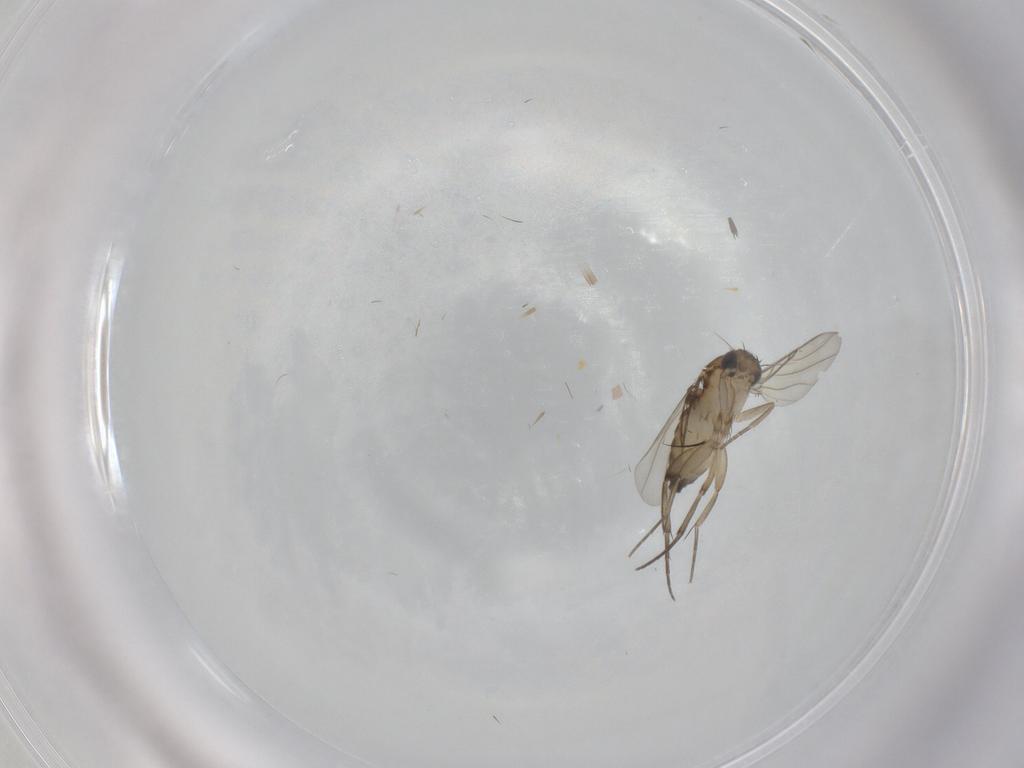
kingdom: Animalia
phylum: Arthropoda
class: Insecta
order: Diptera
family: Phoridae
